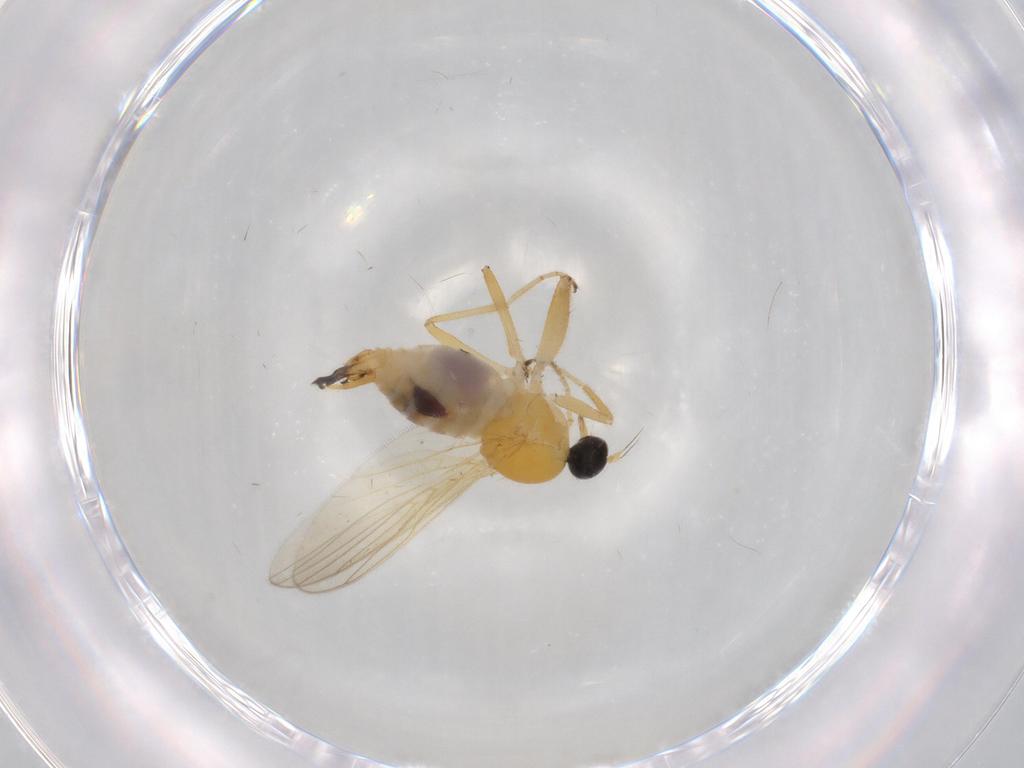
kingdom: Animalia
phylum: Arthropoda
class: Insecta
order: Diptera
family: Hybotidae
